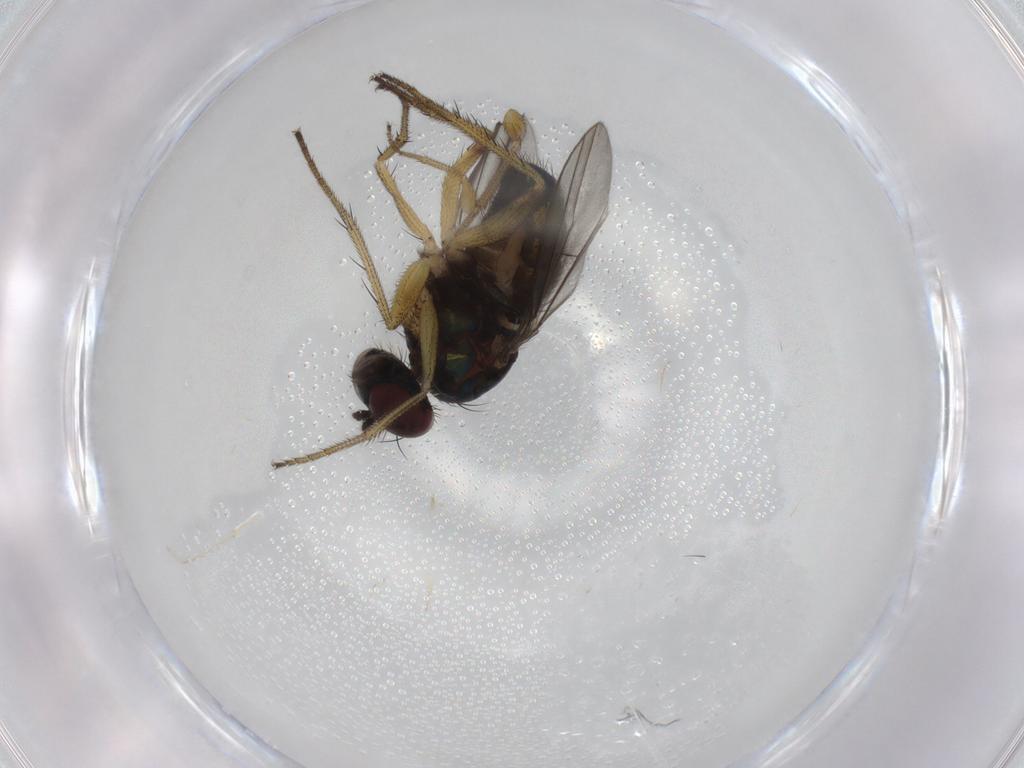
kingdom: Animalia
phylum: Arthropoda
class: Insecta
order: Diptera
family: Dolichopodidae
